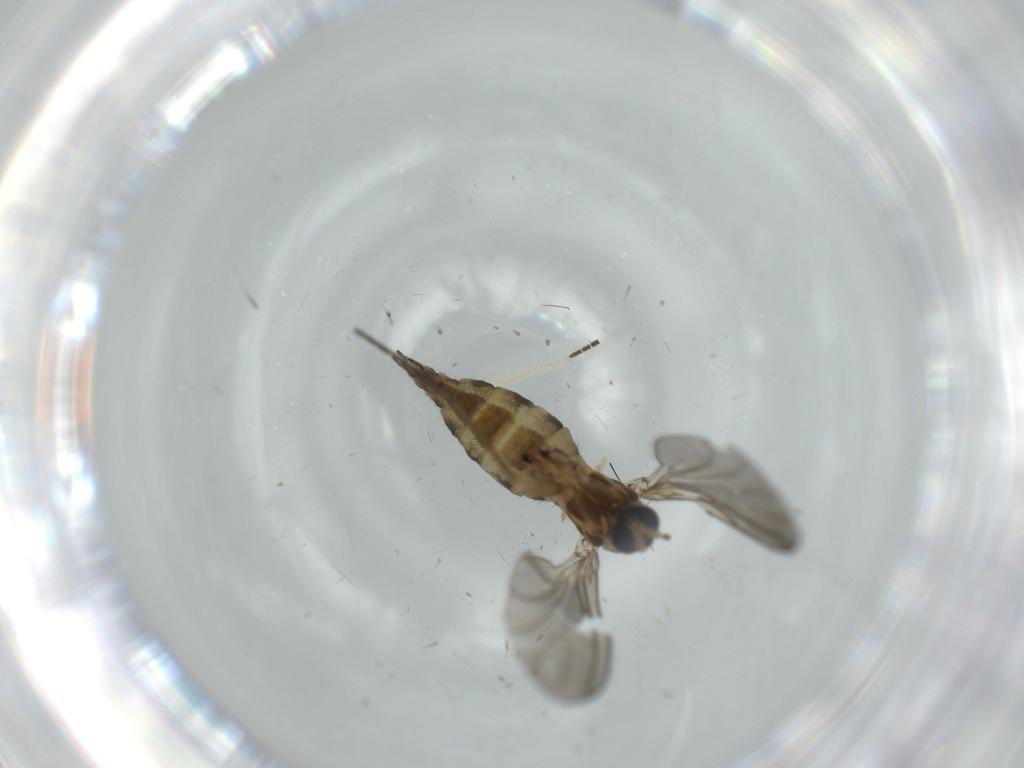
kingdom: Animalia
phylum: Arthropoda
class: Insecta
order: Diptera
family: Sciaridae
